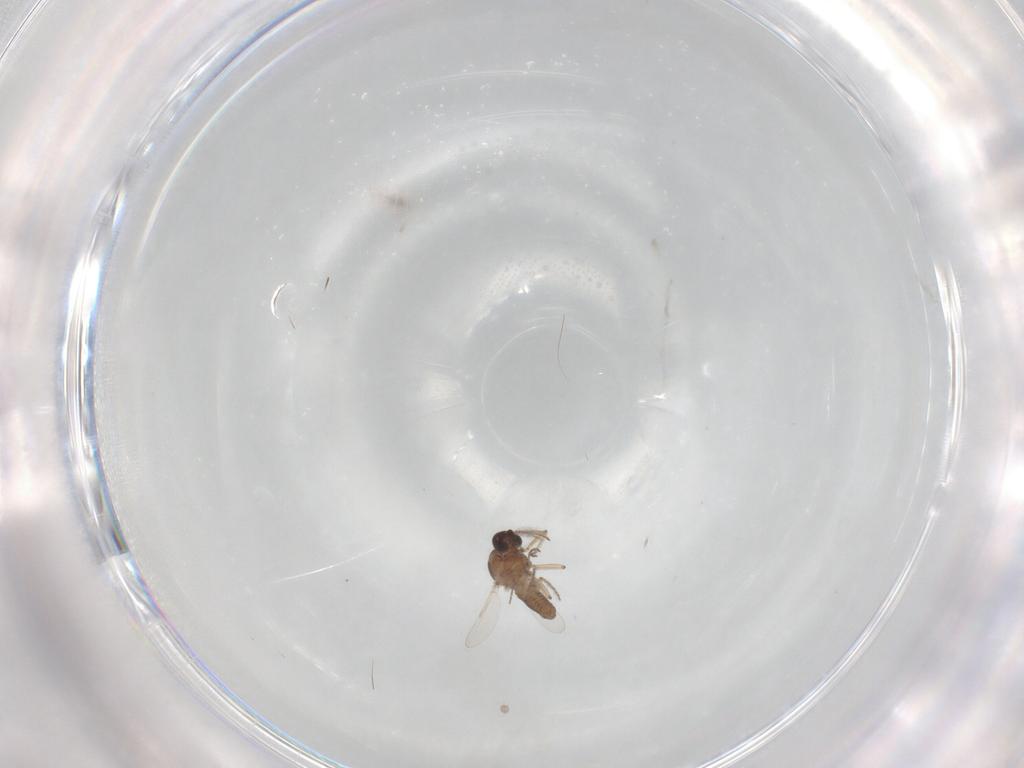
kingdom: Animalia
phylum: Arthropoda
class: Insecta
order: Diptera
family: Ceratopogonidae
